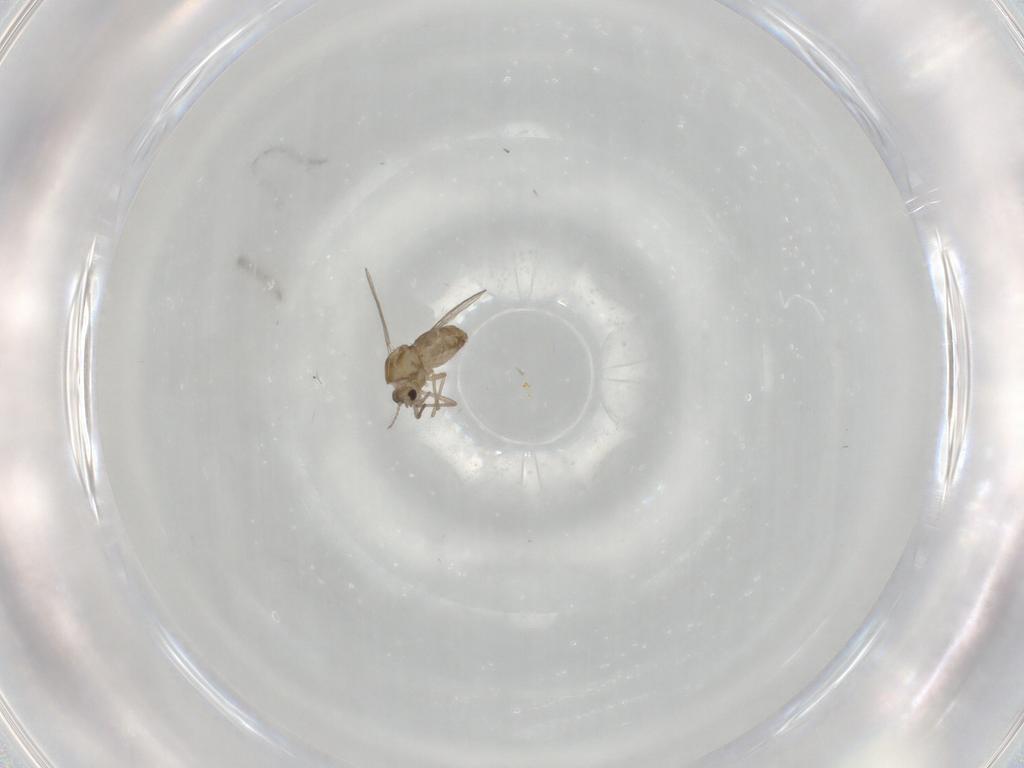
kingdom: Animalia
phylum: Arthropoda
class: Insecta
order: Diptera
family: Chironomidae
